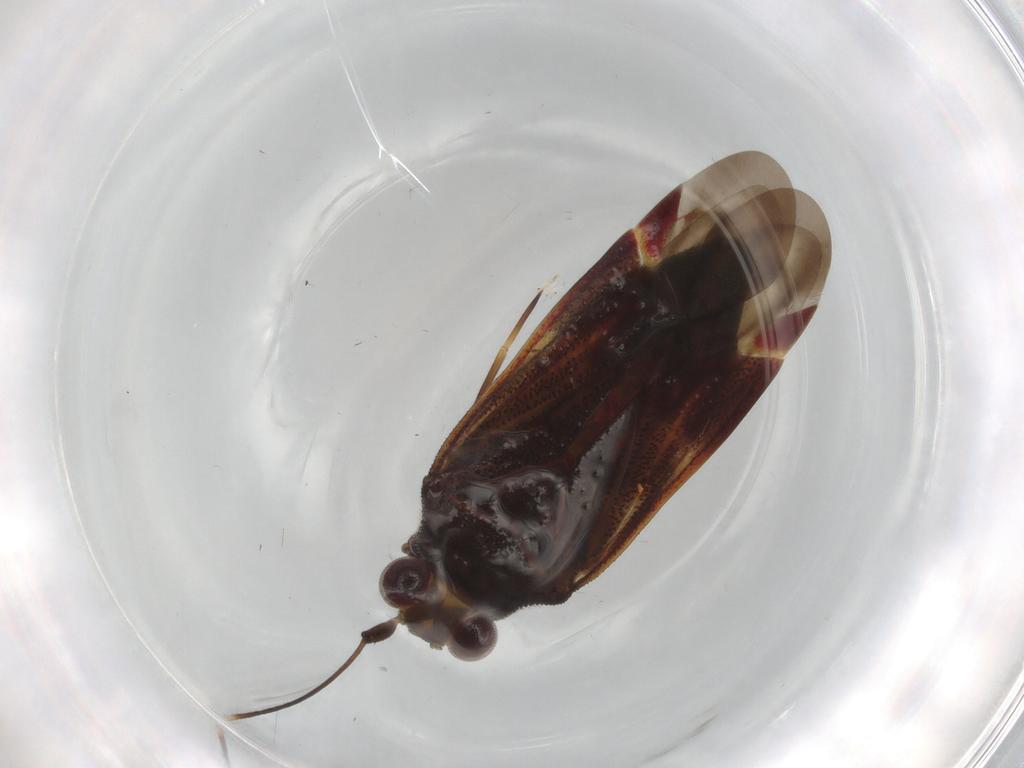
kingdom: Animalia
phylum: Arthropoda
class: Insecta
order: Hemiptera
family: Miridae
